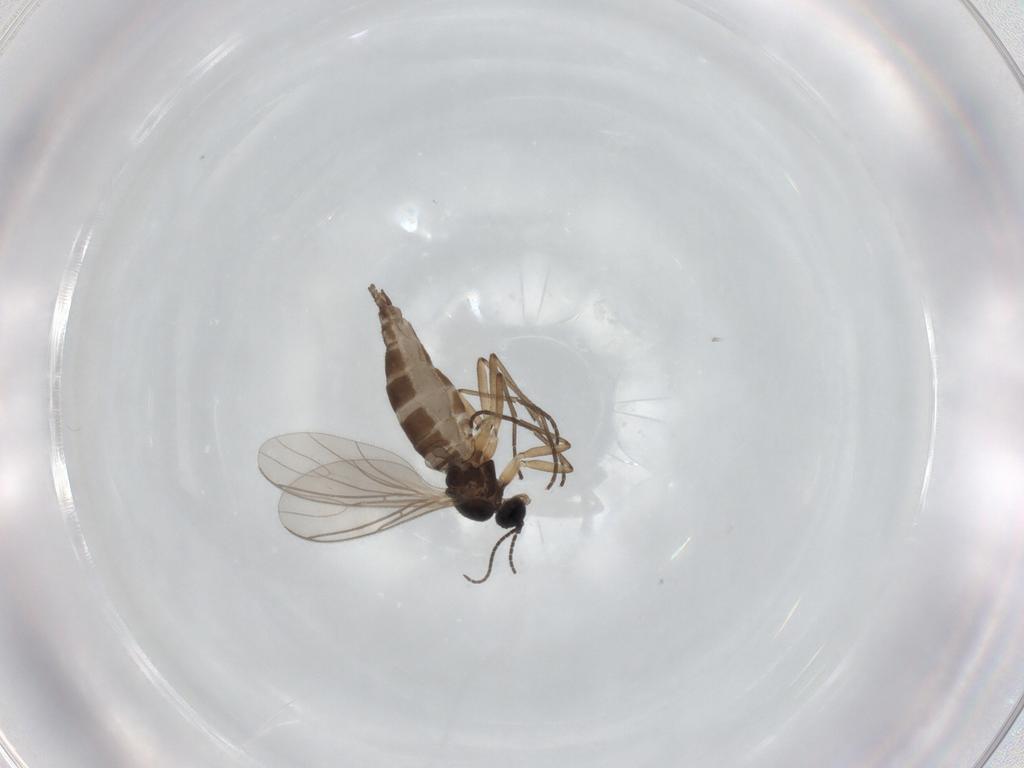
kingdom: Animalia
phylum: Arthropoda
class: Insecta
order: Diptera
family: Sciaridae
